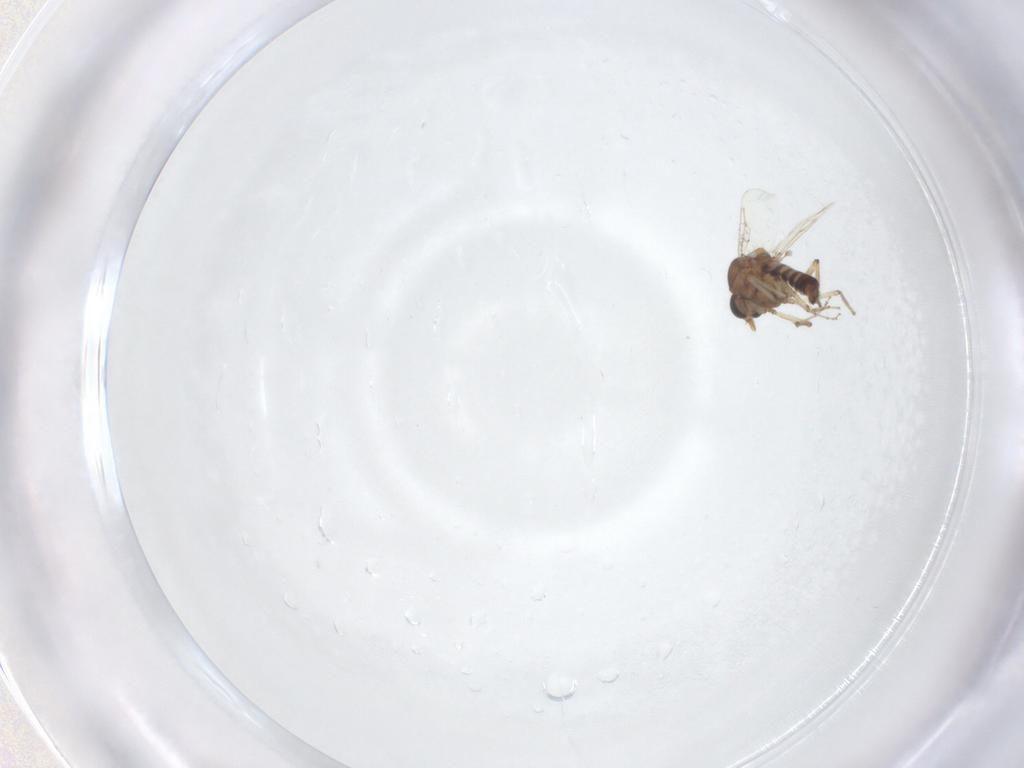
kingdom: Animalia
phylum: Arthropoda
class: Insecta
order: Diptera
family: Ceratopogonidae
